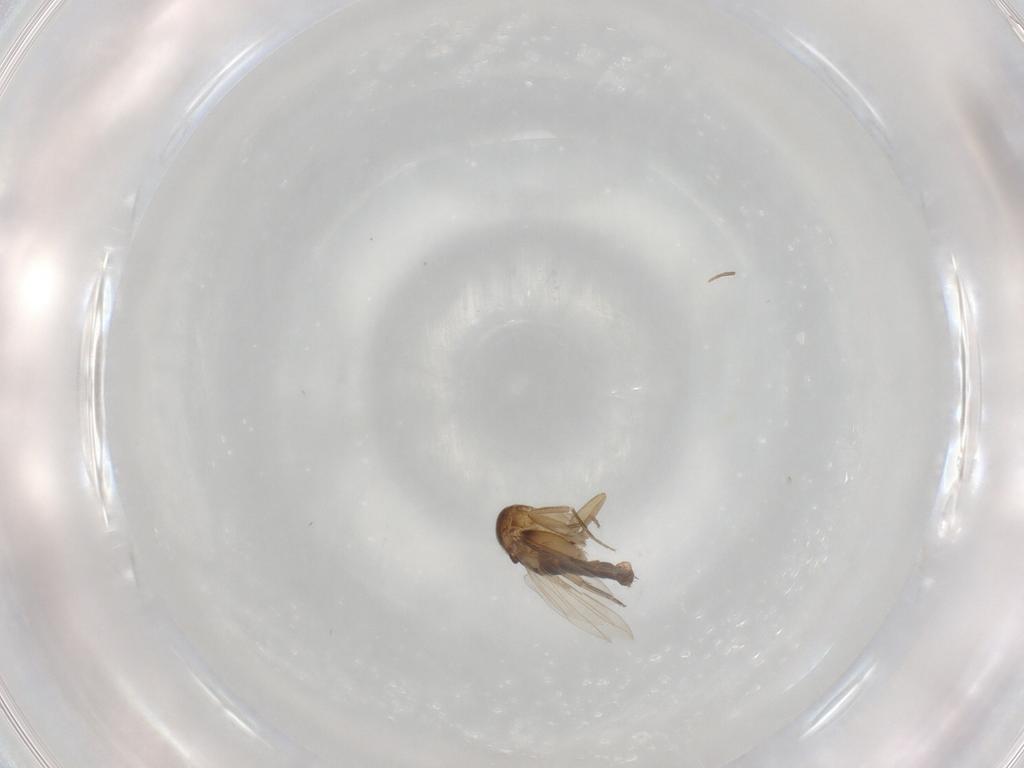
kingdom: Animalia
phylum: Arthropoda
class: Insecta
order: Diptera
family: Phoridae
